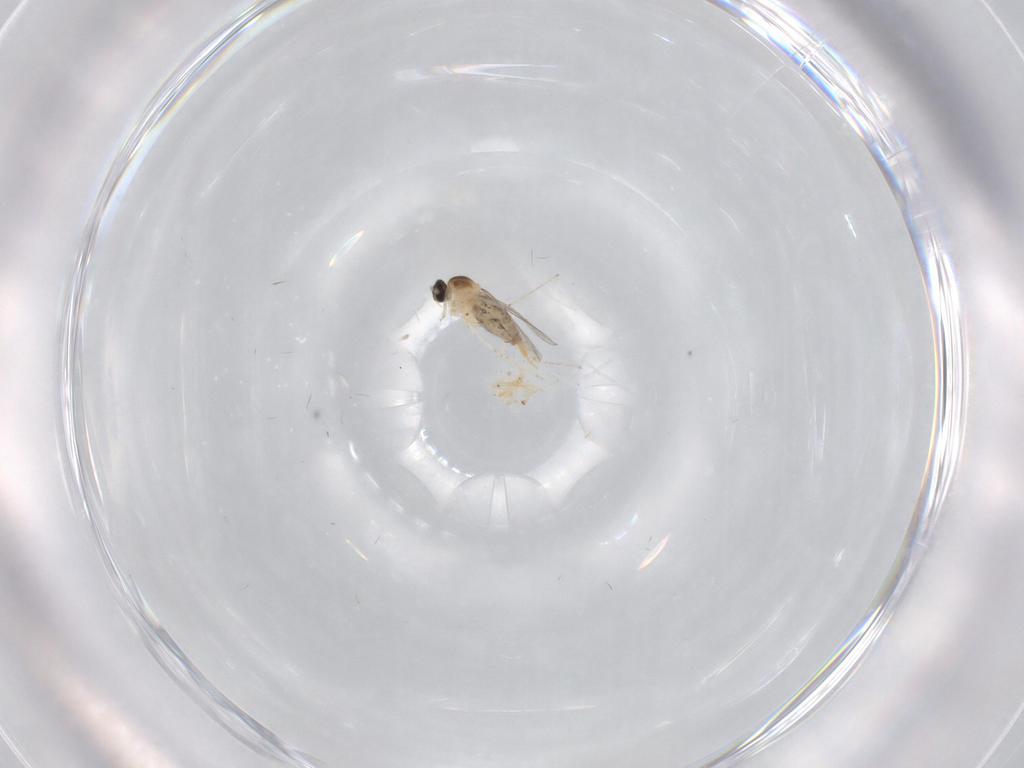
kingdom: Animalia
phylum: Arthropoda
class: Insecta
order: Diptera
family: Cecidomyiidae
